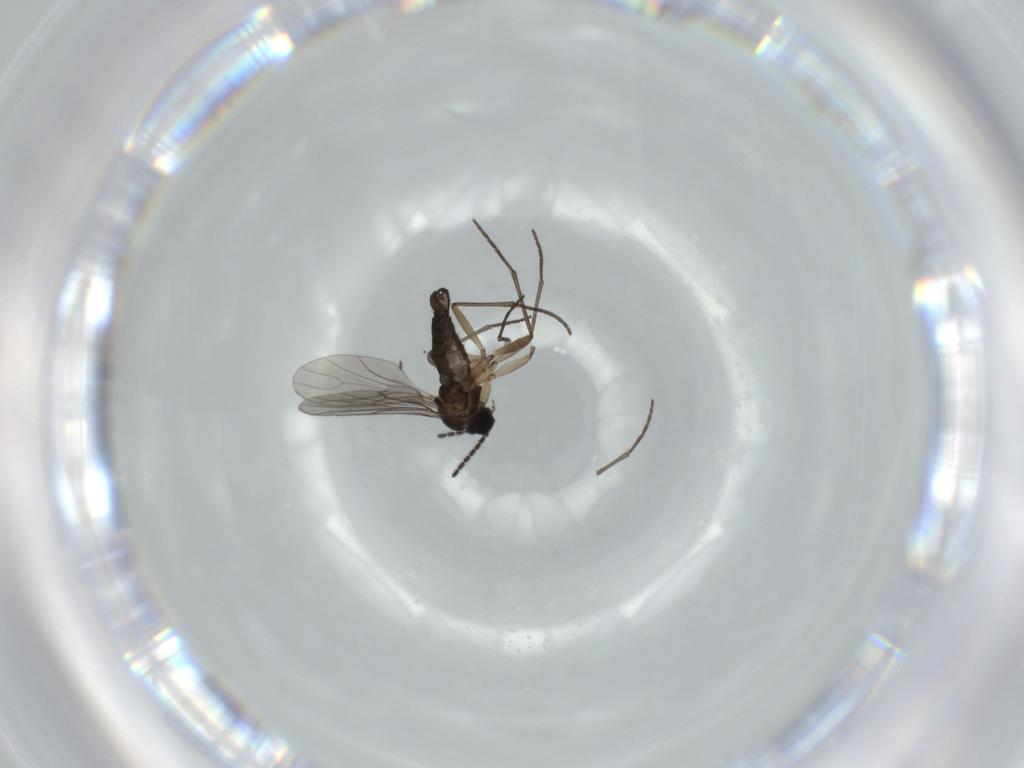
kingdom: Animalia
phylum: Arthropoda
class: Insecta
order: Diptera
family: Sciaridae
